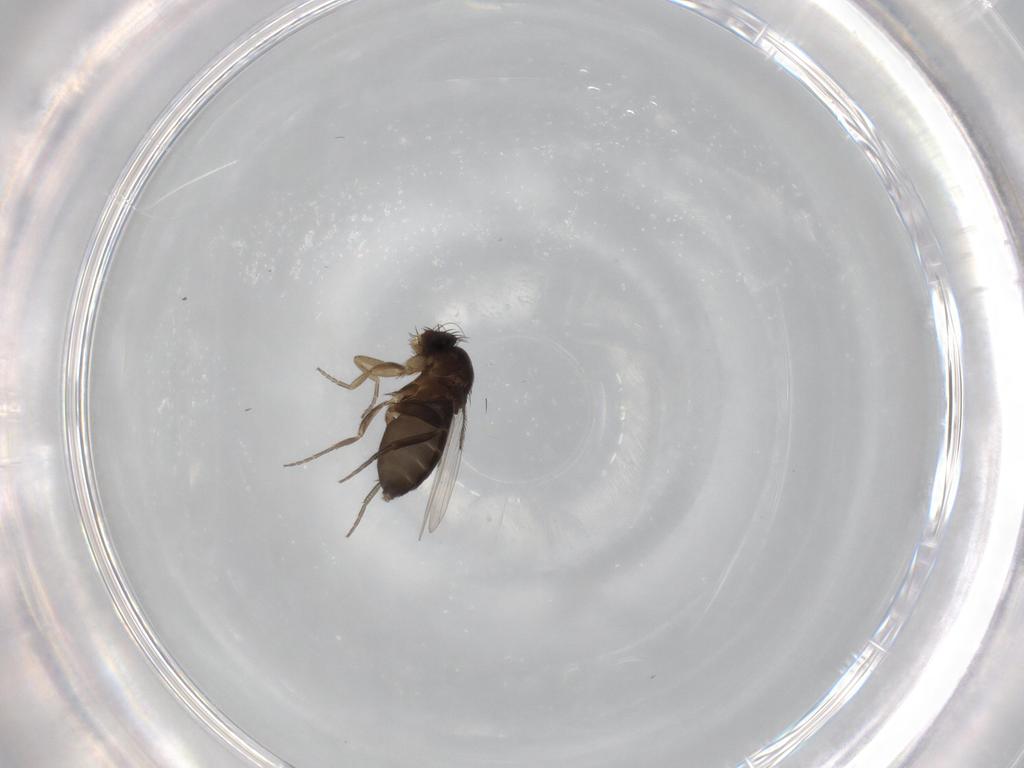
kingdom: Animalia
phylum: Arthropoda
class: Insecta
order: Diptera
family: Phoridae
